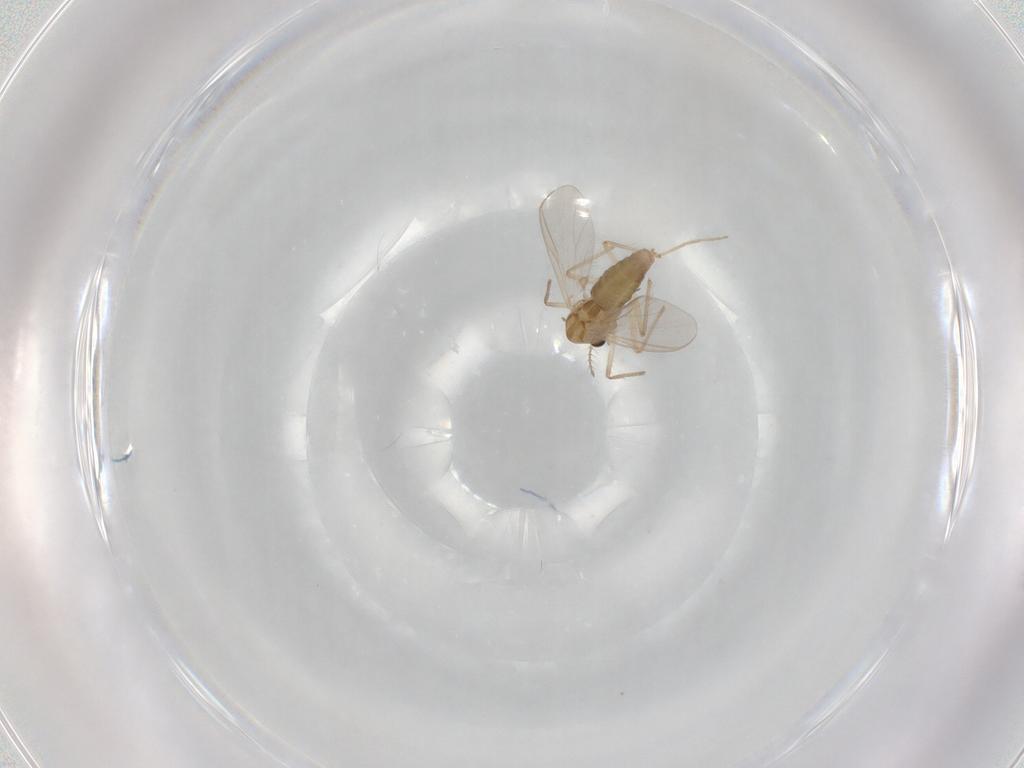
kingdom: Animalia
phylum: Arthropoda
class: Insecta
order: Diptera
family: Chironomidae
